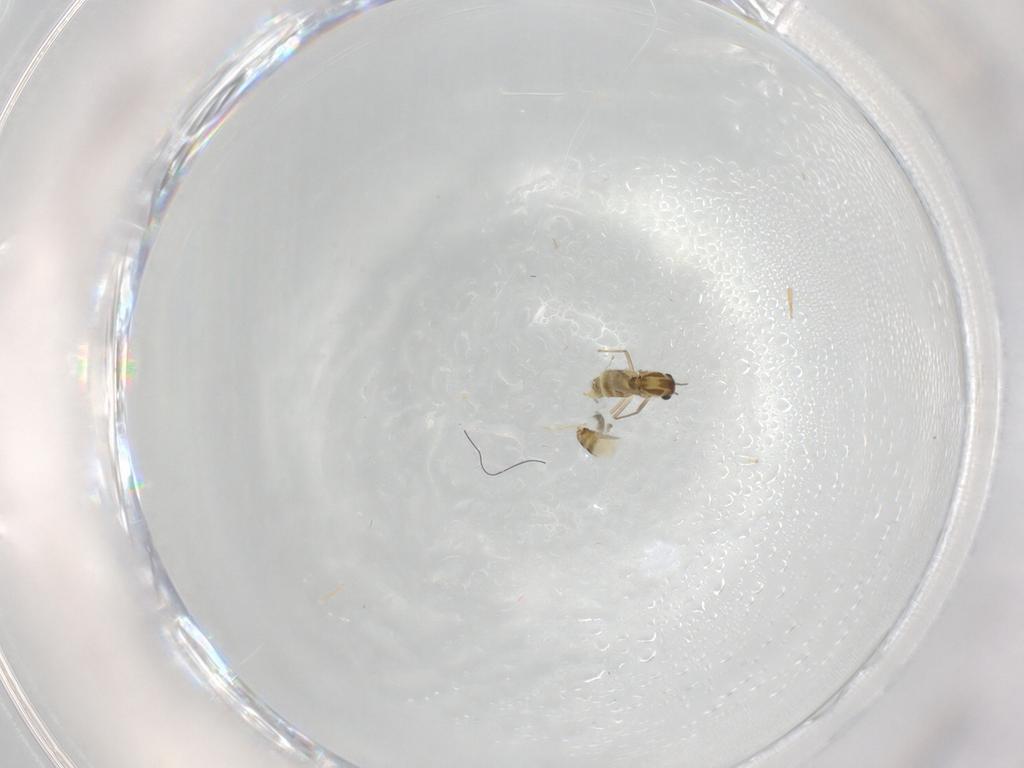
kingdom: Animalia
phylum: Arthropoda
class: Insecta
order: Diptera
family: Chironomidae
